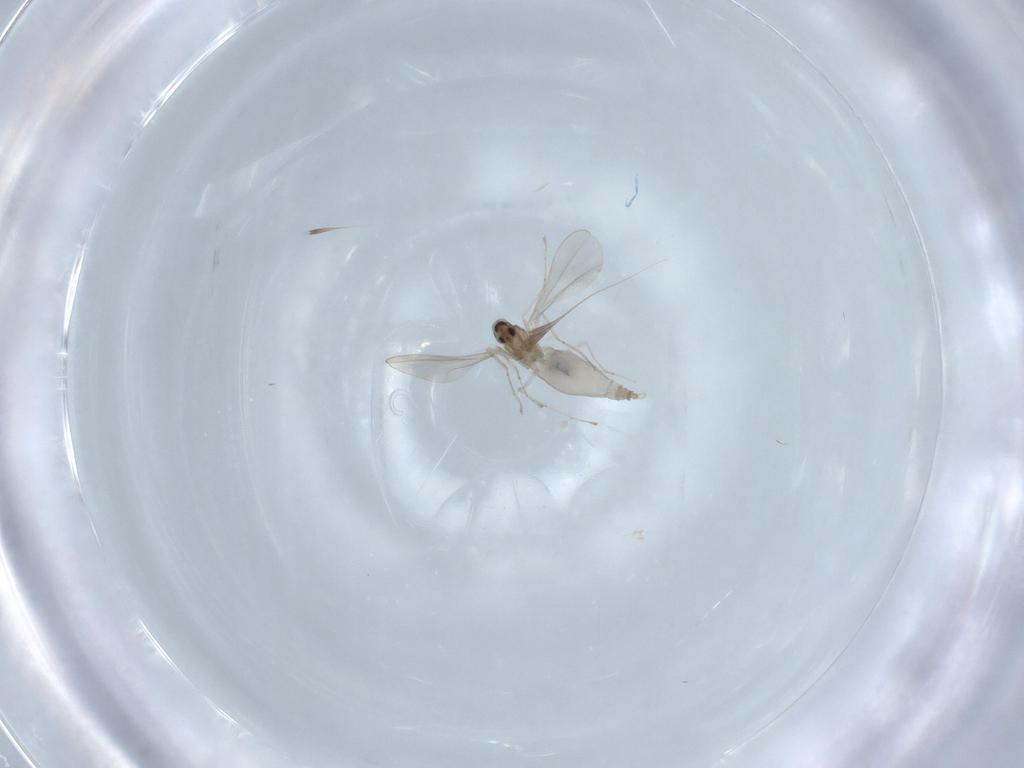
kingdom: Animalia
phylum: Arthropoda
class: Insecta
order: Diptera
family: Cecidomyiidae
